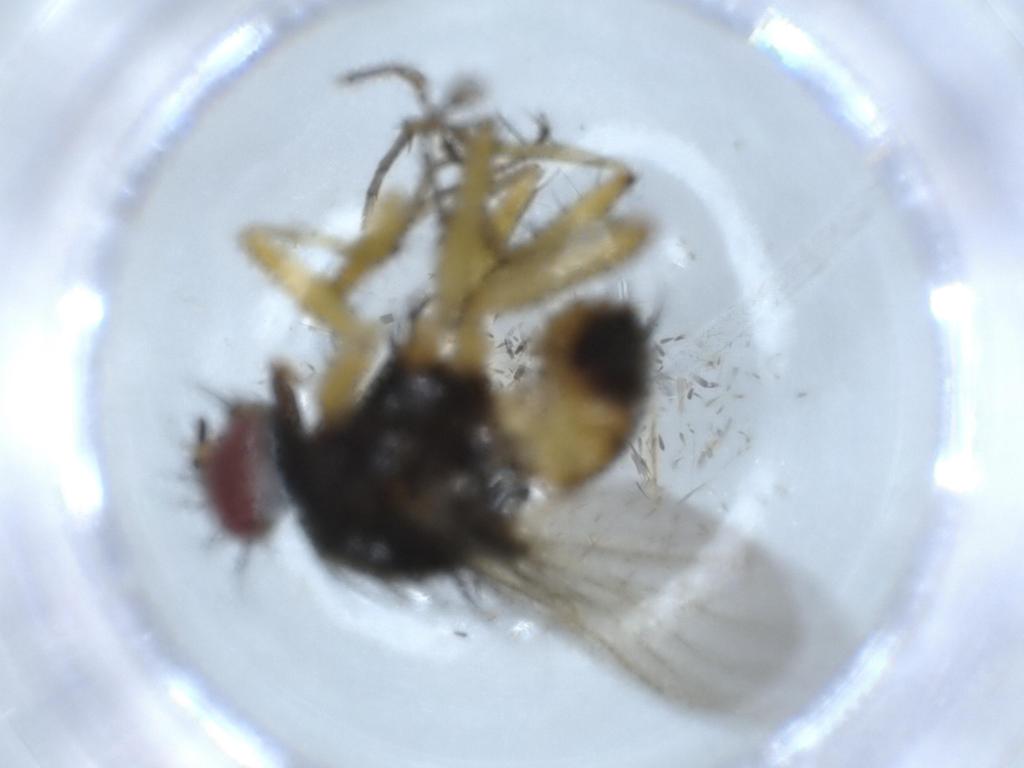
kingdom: Animalia
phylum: Arthropoda
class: Insecta
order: Diptera
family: Muscidae
